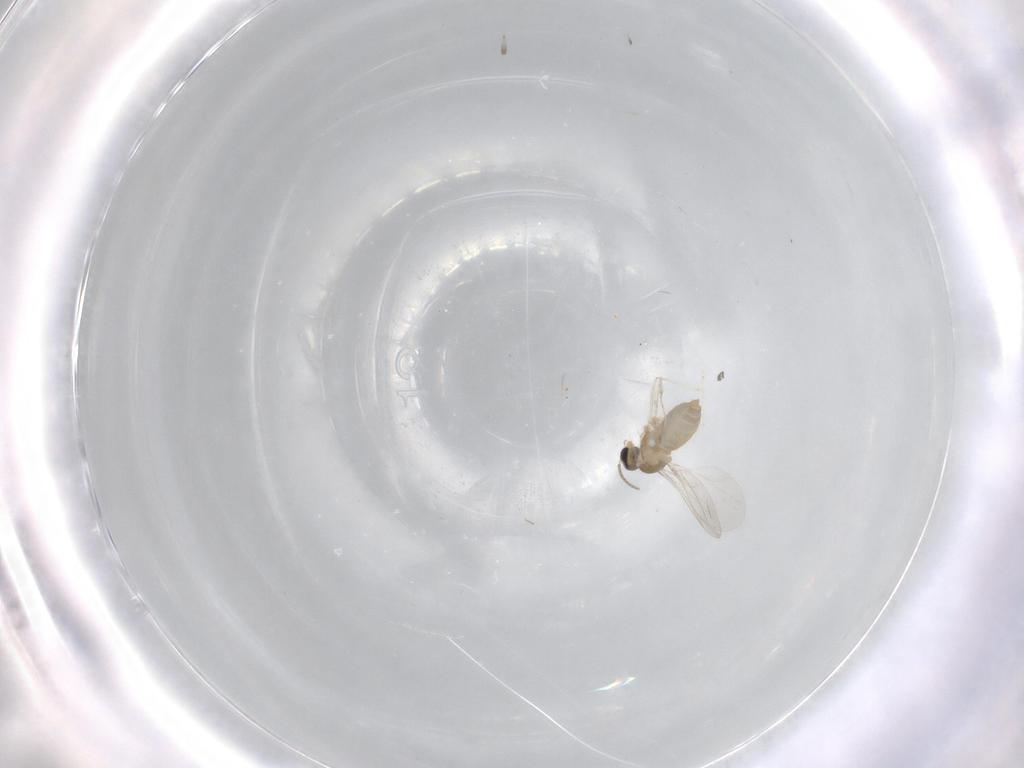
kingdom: Animalia
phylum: Arthropoda
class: Insecta
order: Diptera
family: Cecidomyiidae
